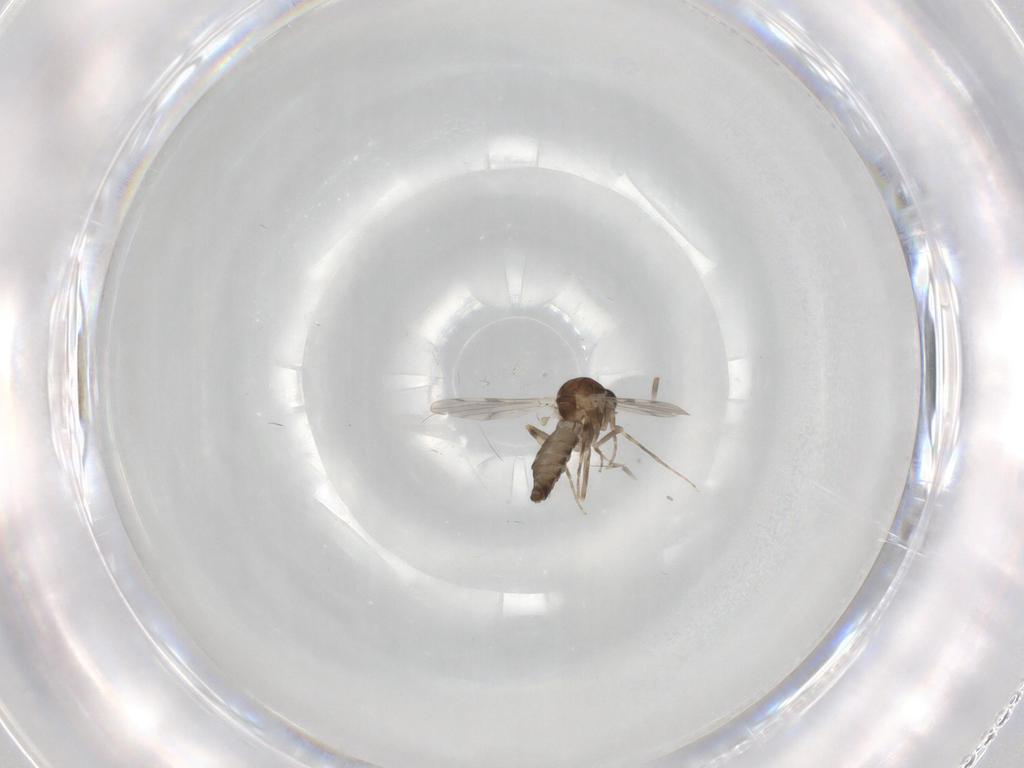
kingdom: Animalia
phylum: Arthropoda
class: Insecta
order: Diptera
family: Ceratopogonidae
